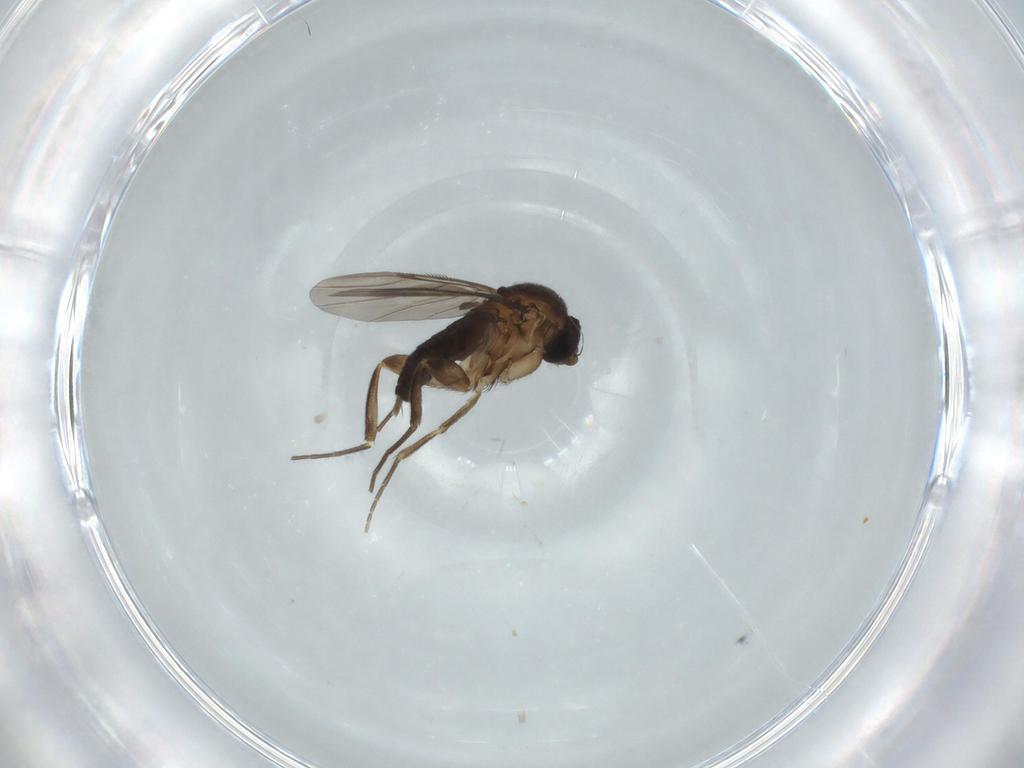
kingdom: Animalia
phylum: Arthropoda
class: Insecta
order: Diptera
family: Phoridae
